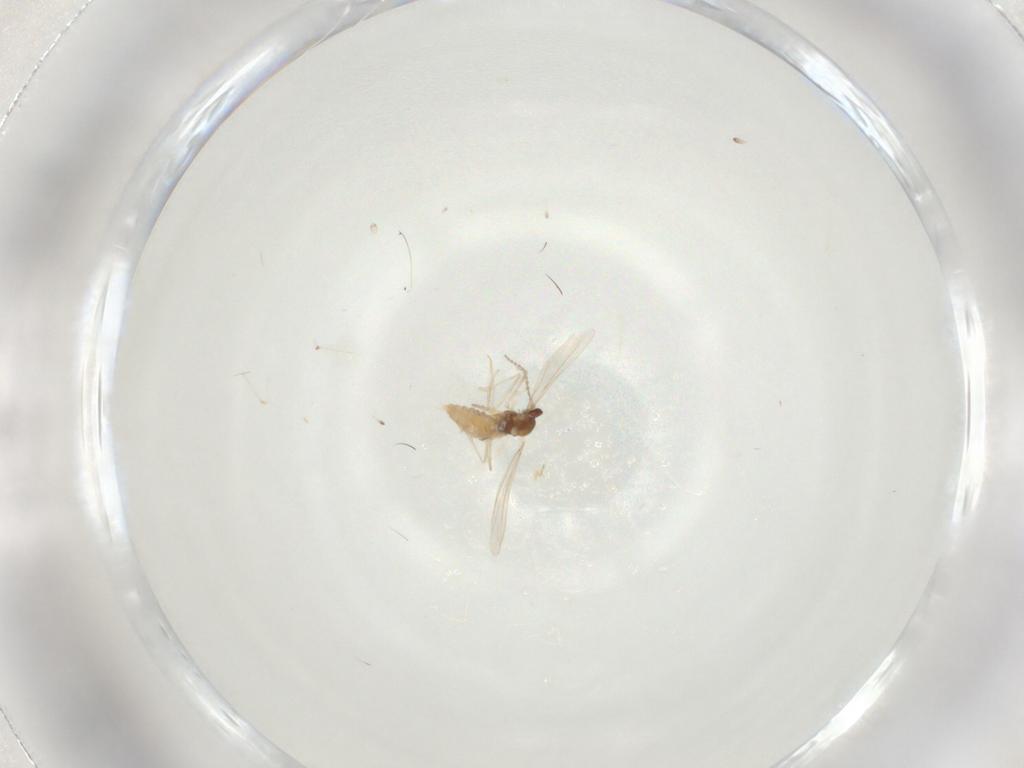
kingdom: Animalia
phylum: Arthropoda
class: Insecta
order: Diptera
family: Cecidomyiidae
